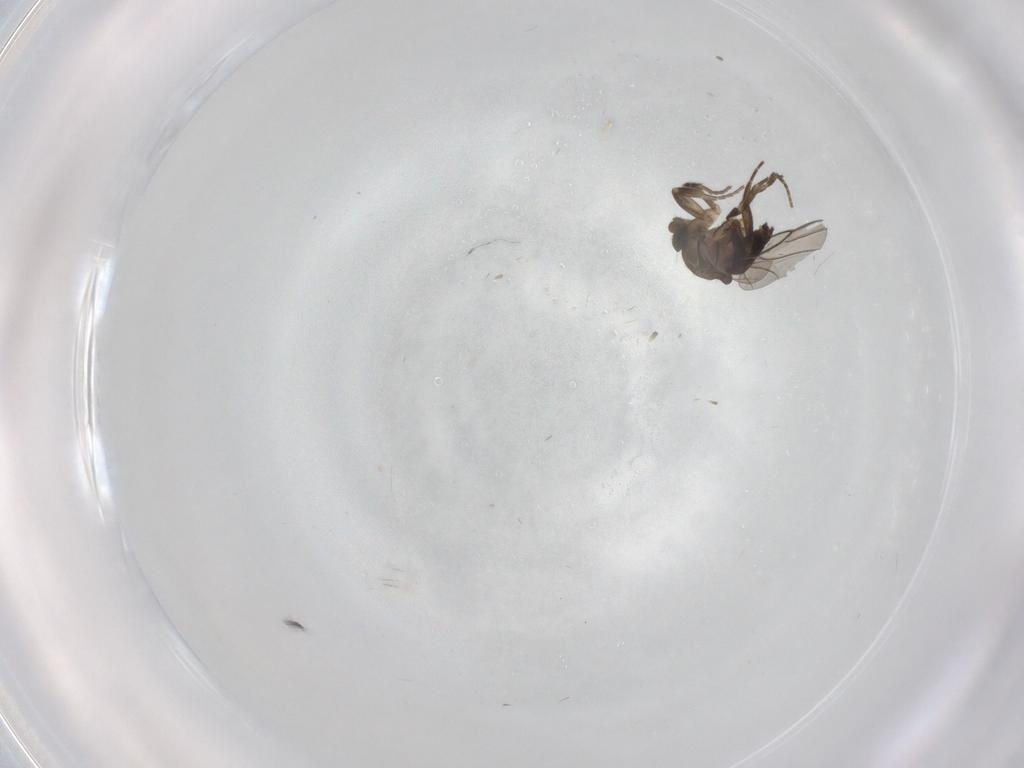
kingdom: Animalia
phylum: Arthropoda
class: Insecta
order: Diptera
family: Phoridae
